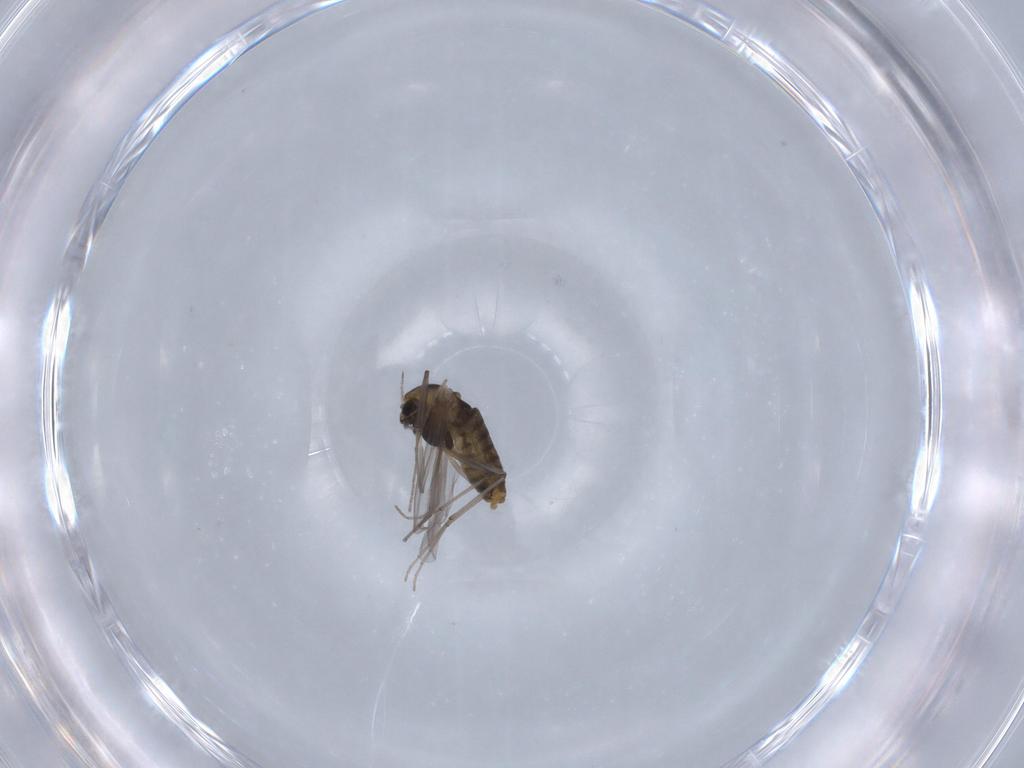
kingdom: Animalia
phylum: Arthropoda
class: Insecta
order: Diptera
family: Chironomidae
